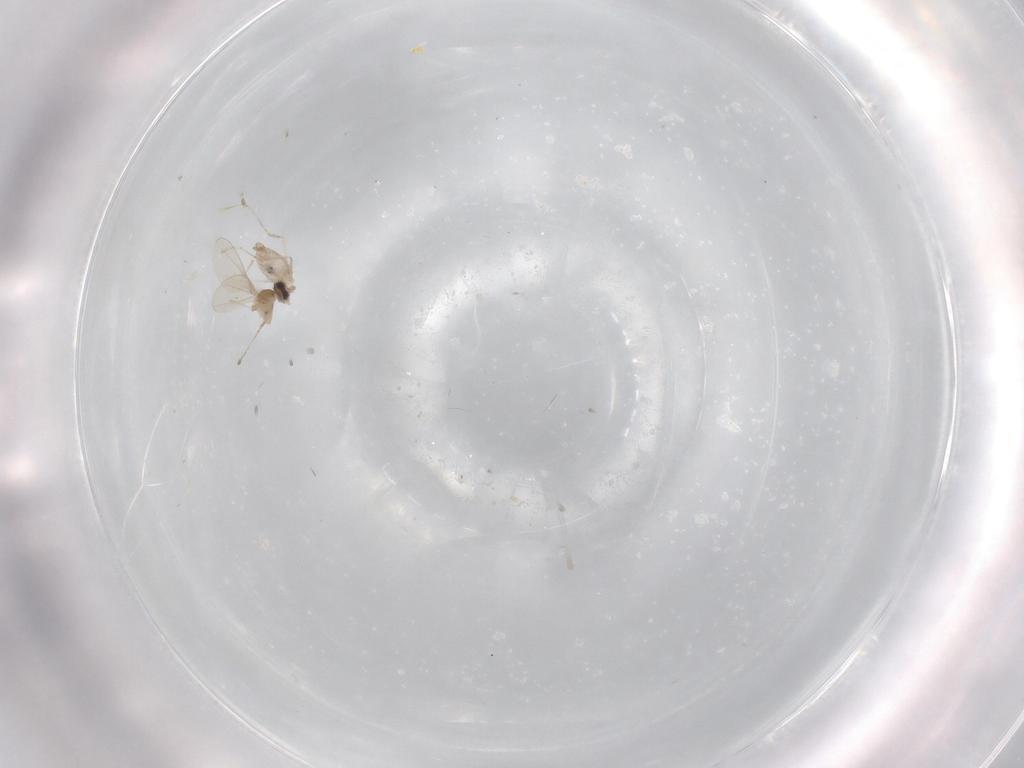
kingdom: Animalia
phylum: Arthropoda
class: Insecta
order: Diptera
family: Cecidomyiidae
